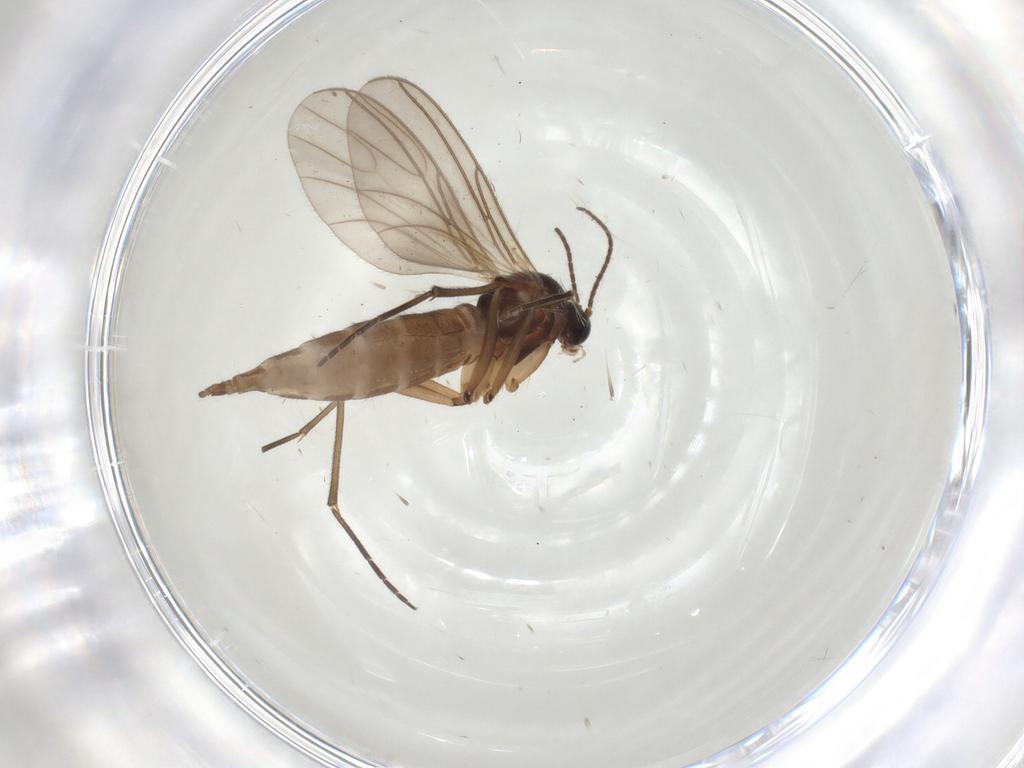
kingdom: Animalia
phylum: Arthropoda
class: Insecta
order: Diptera
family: Sciaridae
